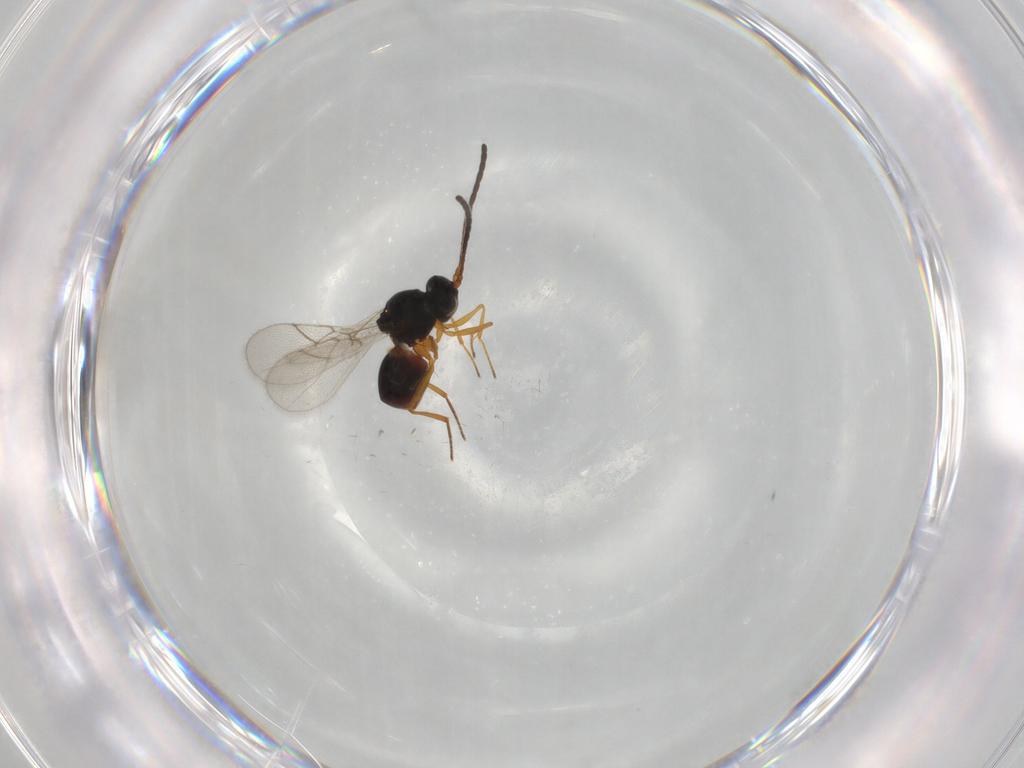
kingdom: Animalia
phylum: Arthropoda
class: Insecta
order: Hymenoptera
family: Figitidae
